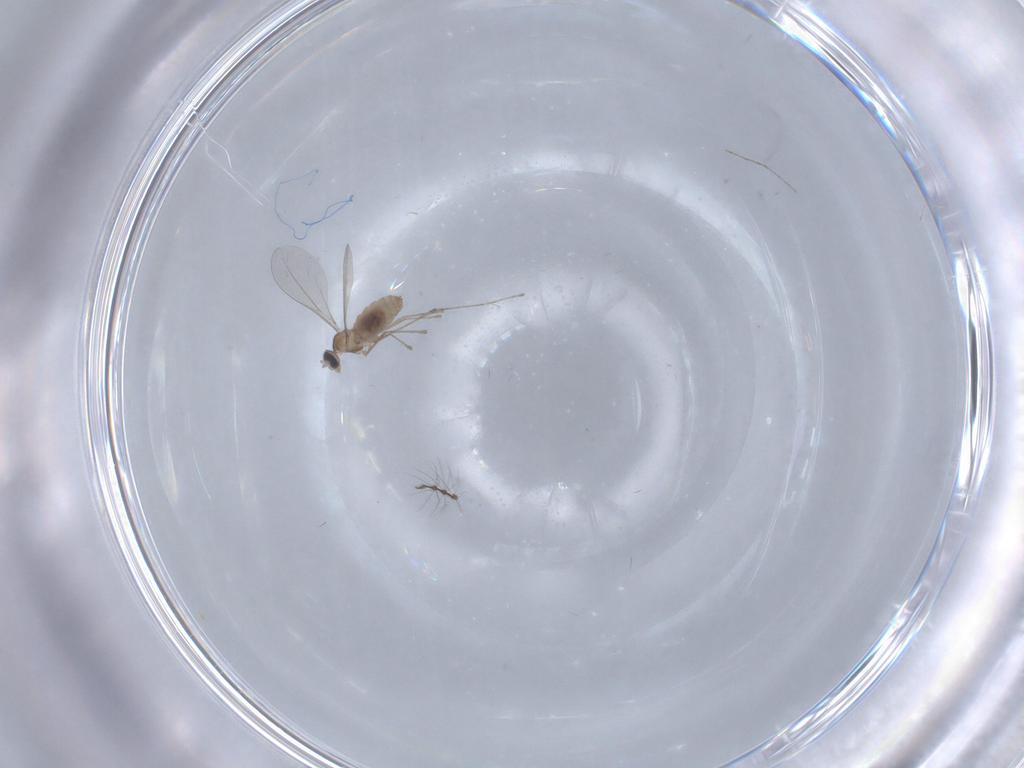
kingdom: Animalia
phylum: Arthropoda
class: Insecta
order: Diptera
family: Cecidomyiidae
